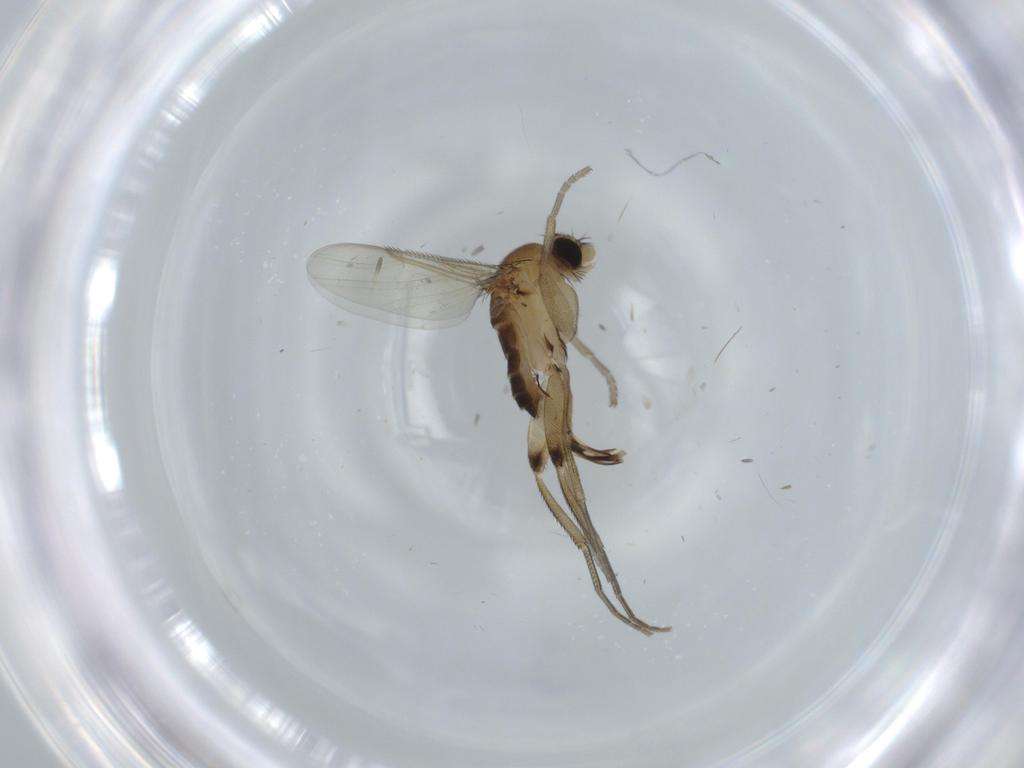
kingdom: Animalia
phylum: Arthropoda
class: Insecta
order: Diptera
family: Phoridae
